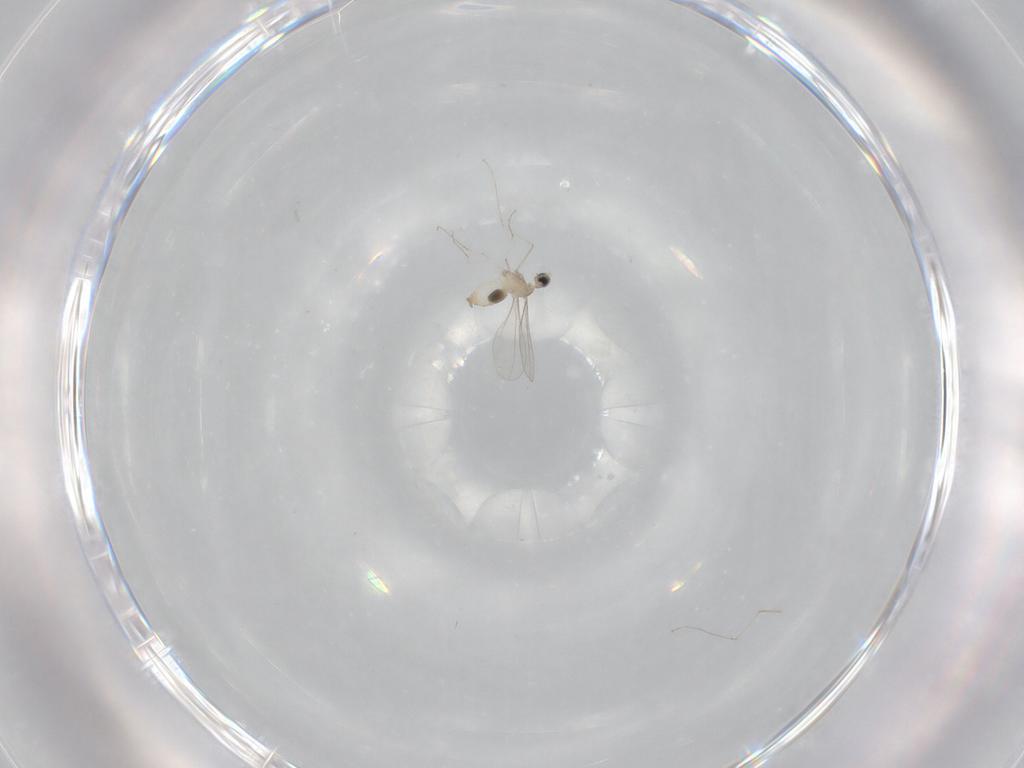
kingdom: Animalia
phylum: Arthropoda
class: Insecta
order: Diptera
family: Cecidomyiidae
